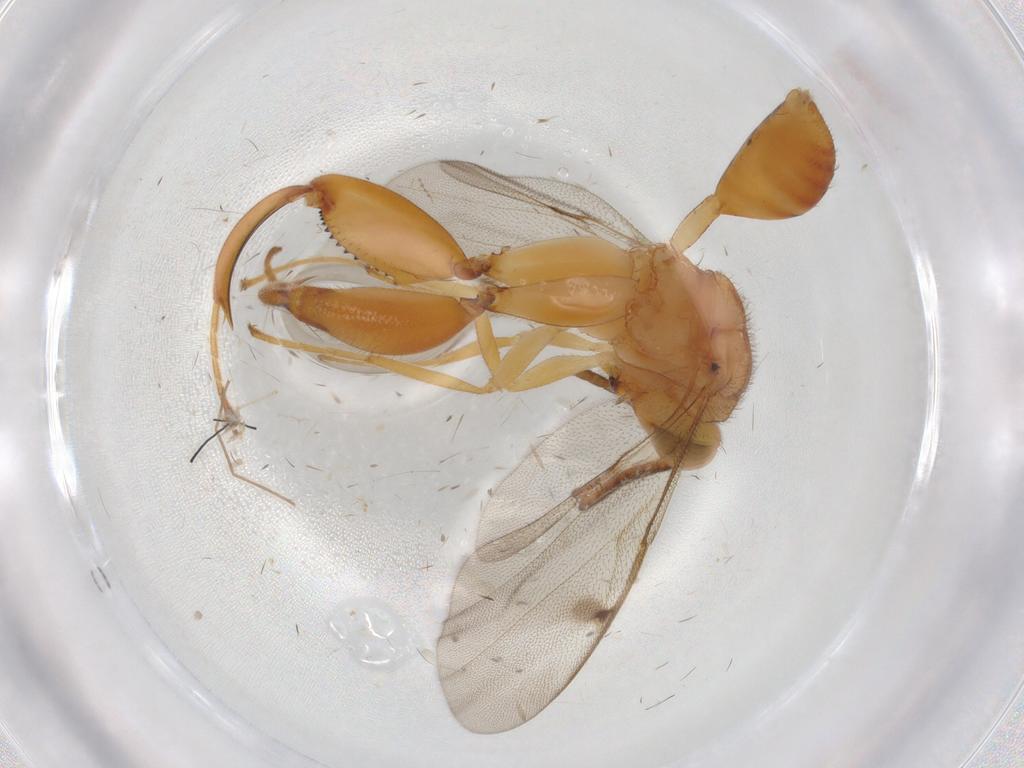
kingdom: Animalia
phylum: Arthropoda
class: Insecta
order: Hymenoptera
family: Chalcididae
